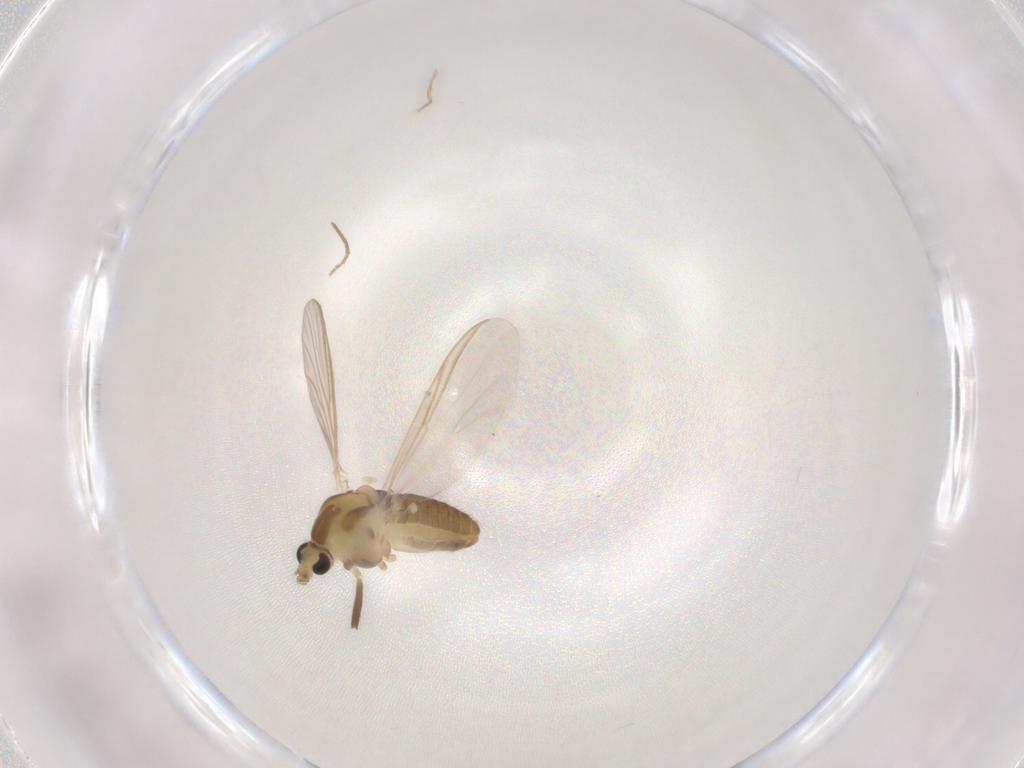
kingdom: Animalia
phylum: Arthropoda
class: Insecta
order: Diptera
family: Chironomidae
